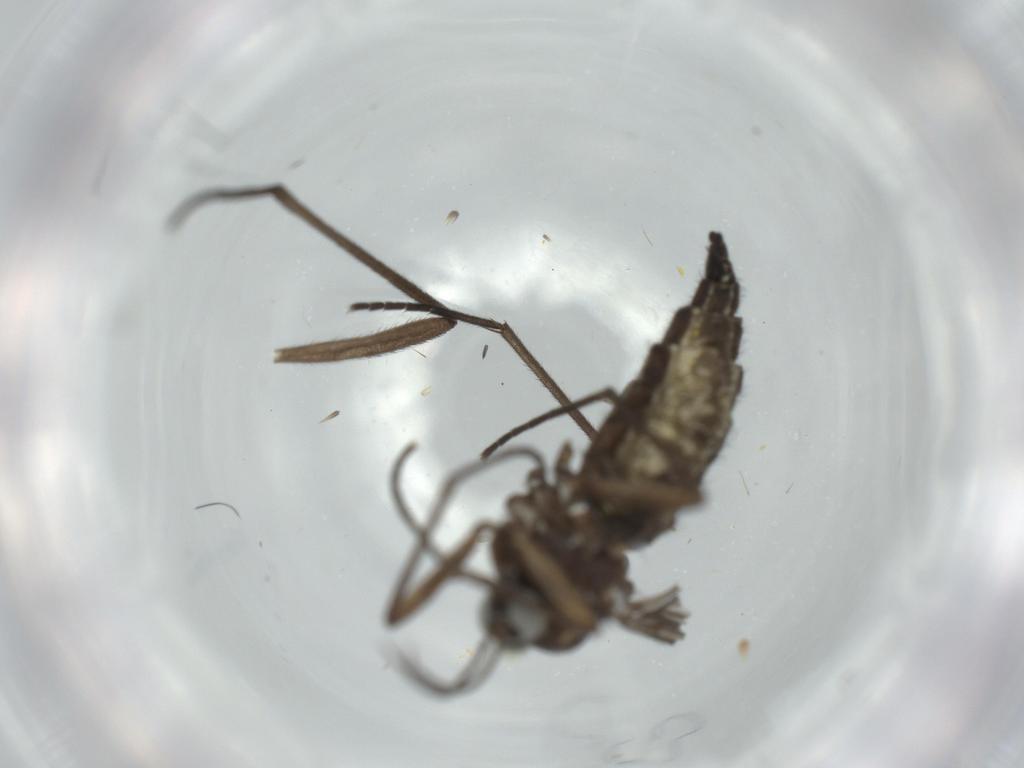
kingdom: Animalia
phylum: Arthropoda
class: Insecta
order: Diptera
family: Sciaridae
